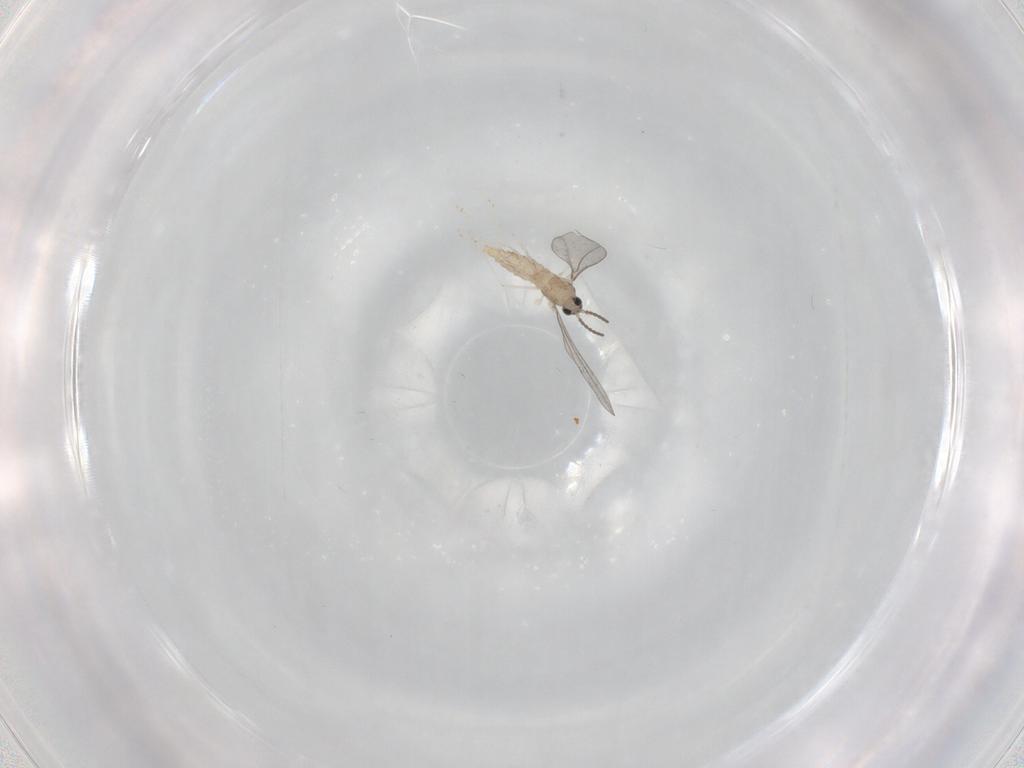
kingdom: Animalia
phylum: Arthropoda
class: Insecta
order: Diptera
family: Cecidomyiidae
